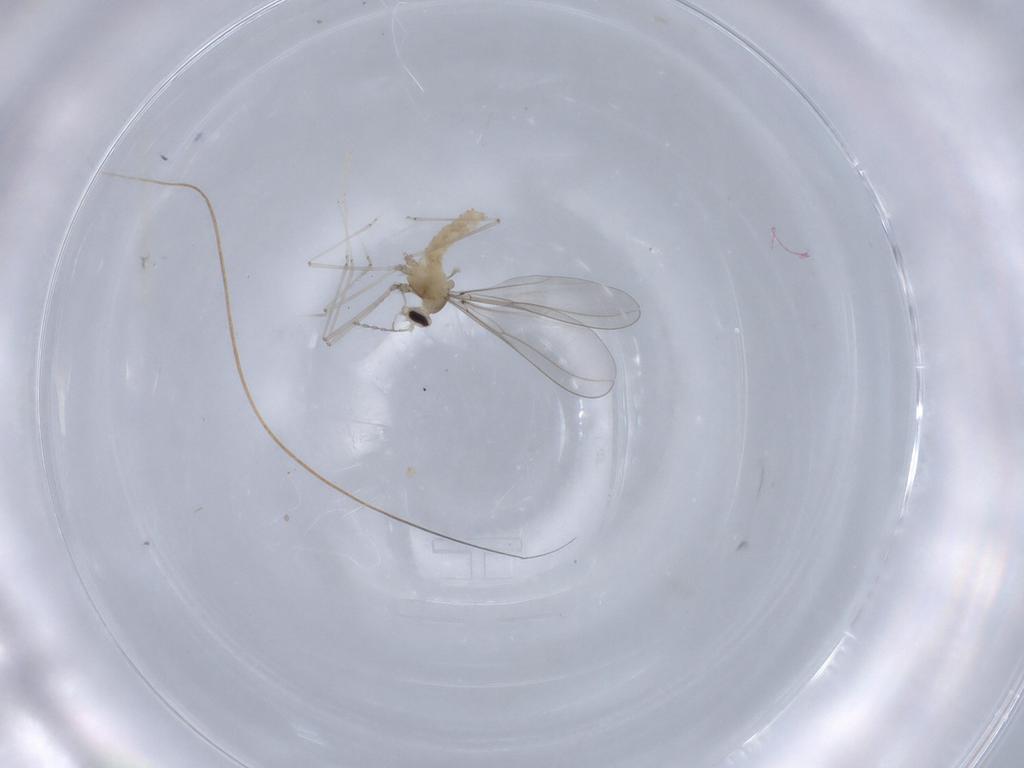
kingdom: Animalia
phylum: Arthropoda
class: Insecta
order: Diptera
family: Cecidomyiidae
